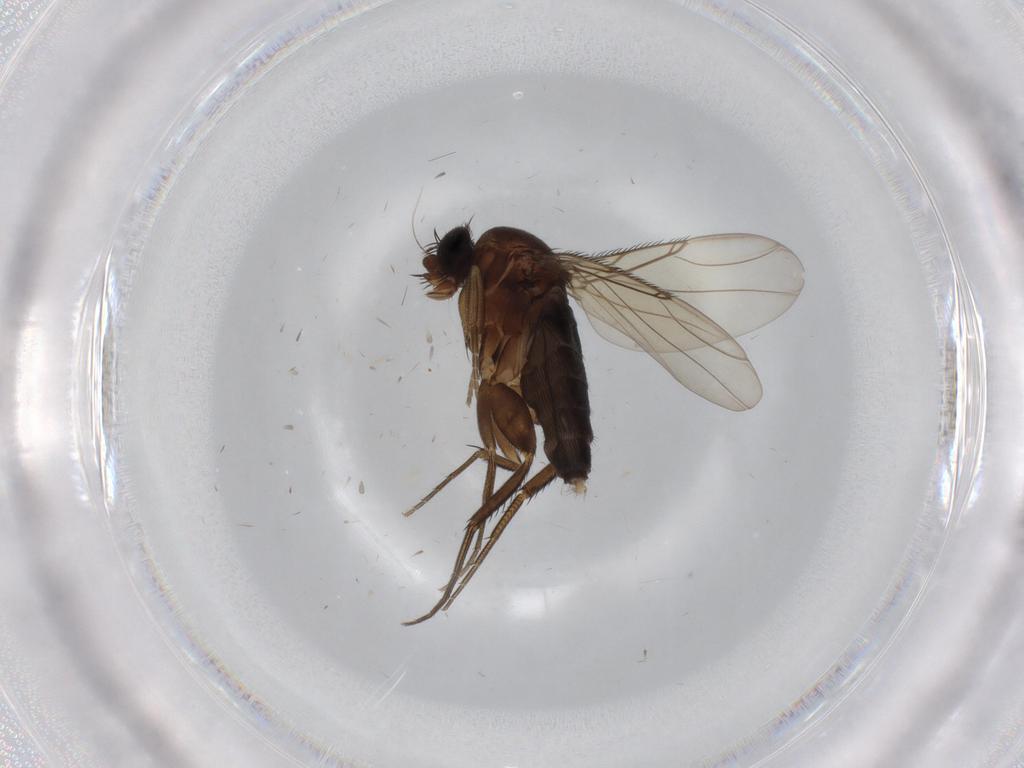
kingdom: Animalia
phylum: Arthropoda
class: Insecta
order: Diptera
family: Phoridae
